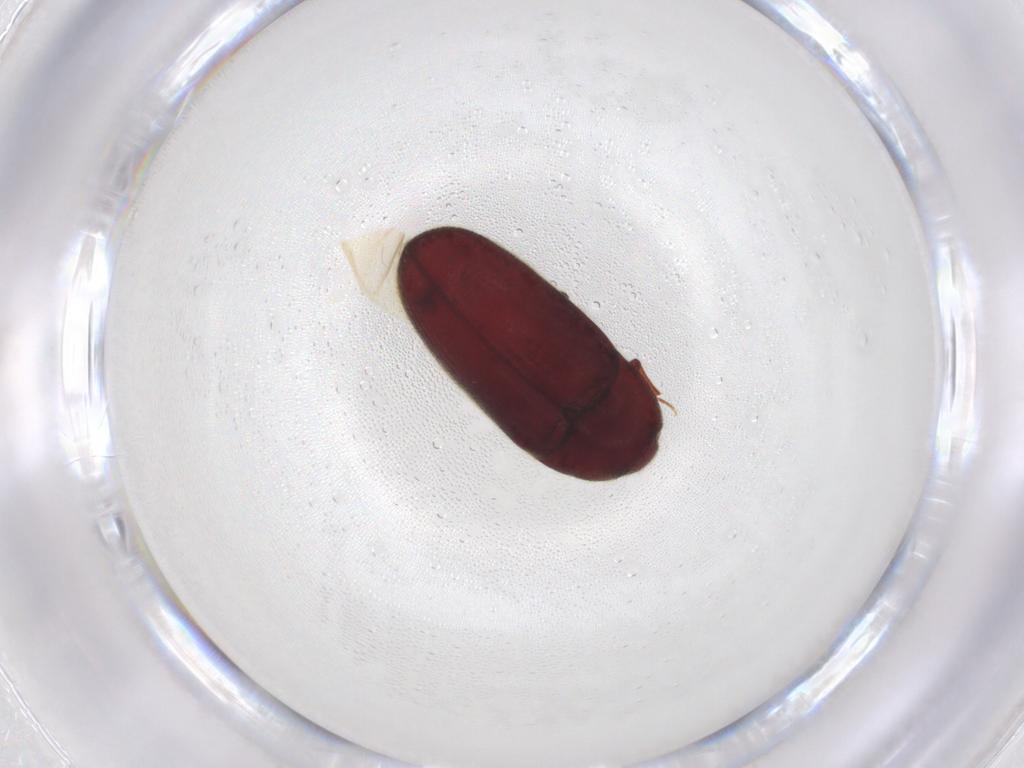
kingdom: Animalia
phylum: Arthropoda
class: Insecta
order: Coleoptera
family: Throscidae
